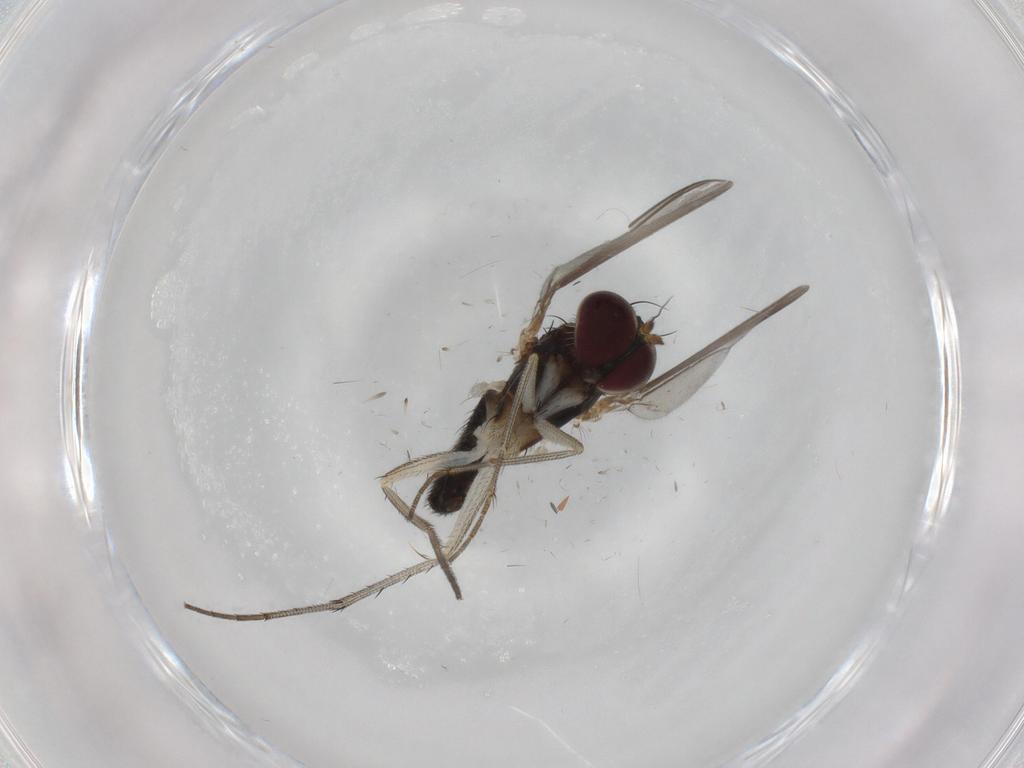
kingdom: Animalia
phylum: Arthropoda
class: Insecta
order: Diptera
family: Dolichopodidae
